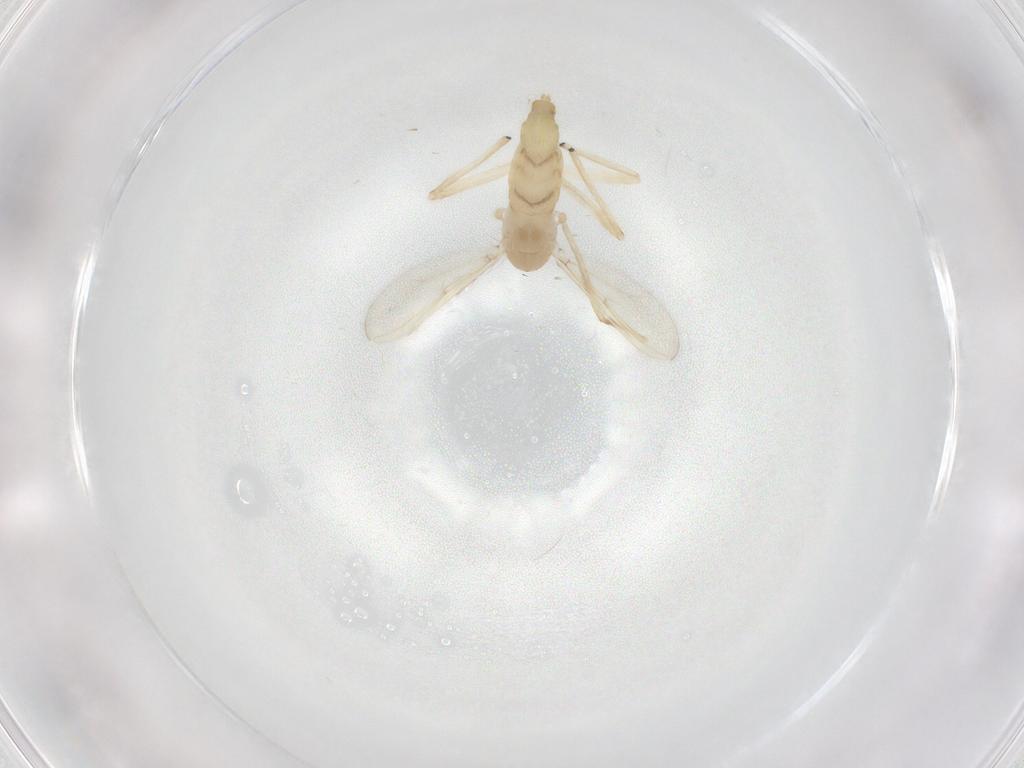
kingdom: Animalia
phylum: Arthropoda
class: Insecta
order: Diptera
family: Chironomidae
